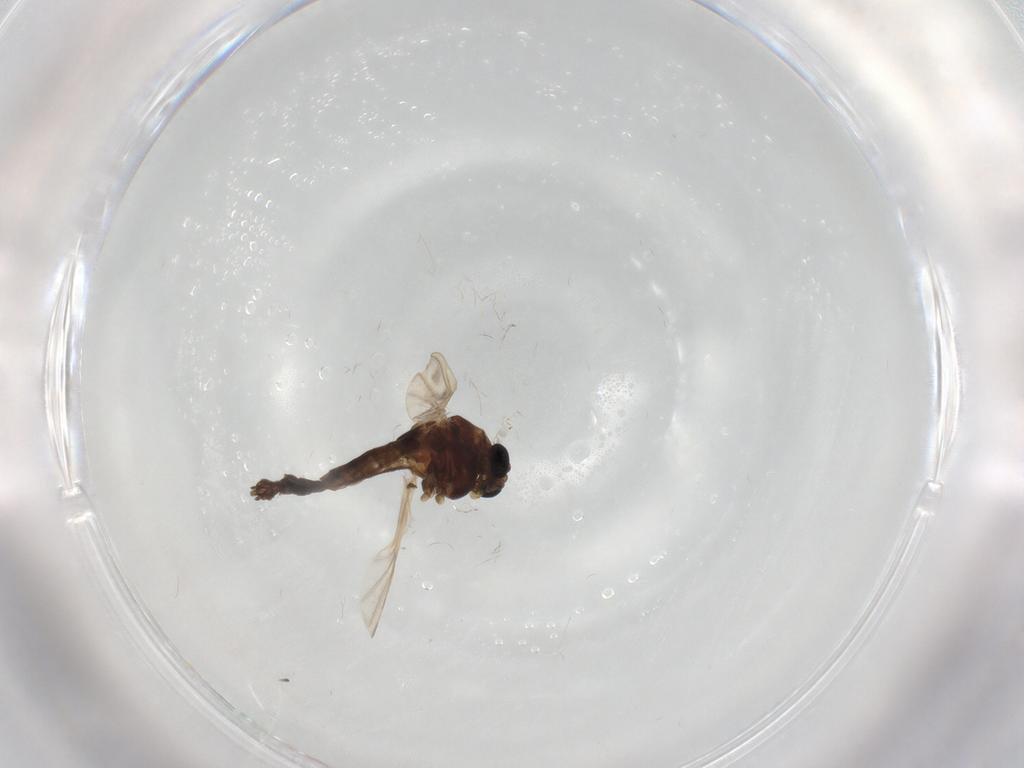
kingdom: Animalia
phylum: Arthropoda
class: Insecta
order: Diptera
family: Chironomidae
